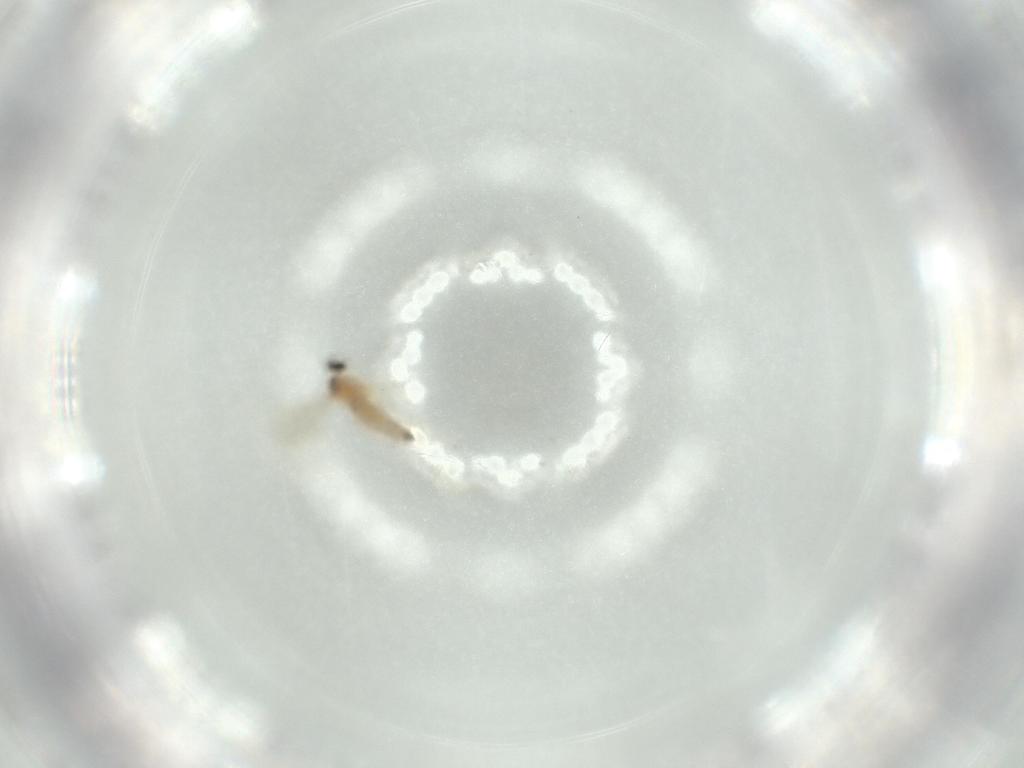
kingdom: Animalia
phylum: Arthropoda
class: Insecta
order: Diptera
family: Chironomidae
